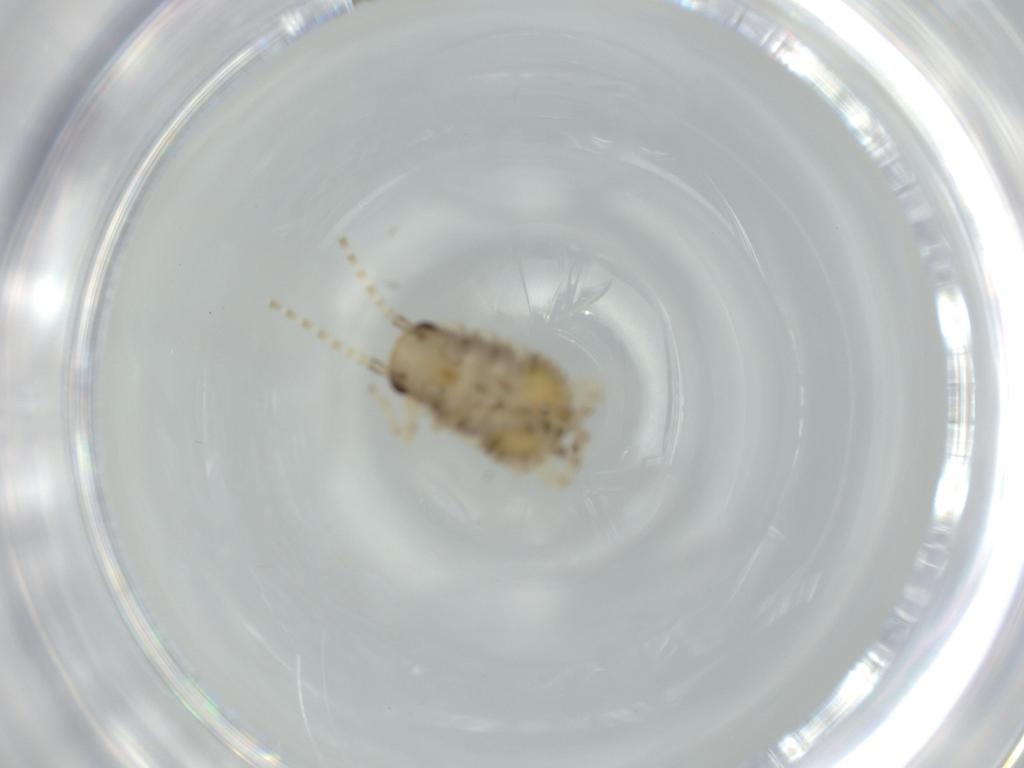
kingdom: Animalia
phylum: Arthropoda
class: Insecta
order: Blattodea
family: Ectobiidae
